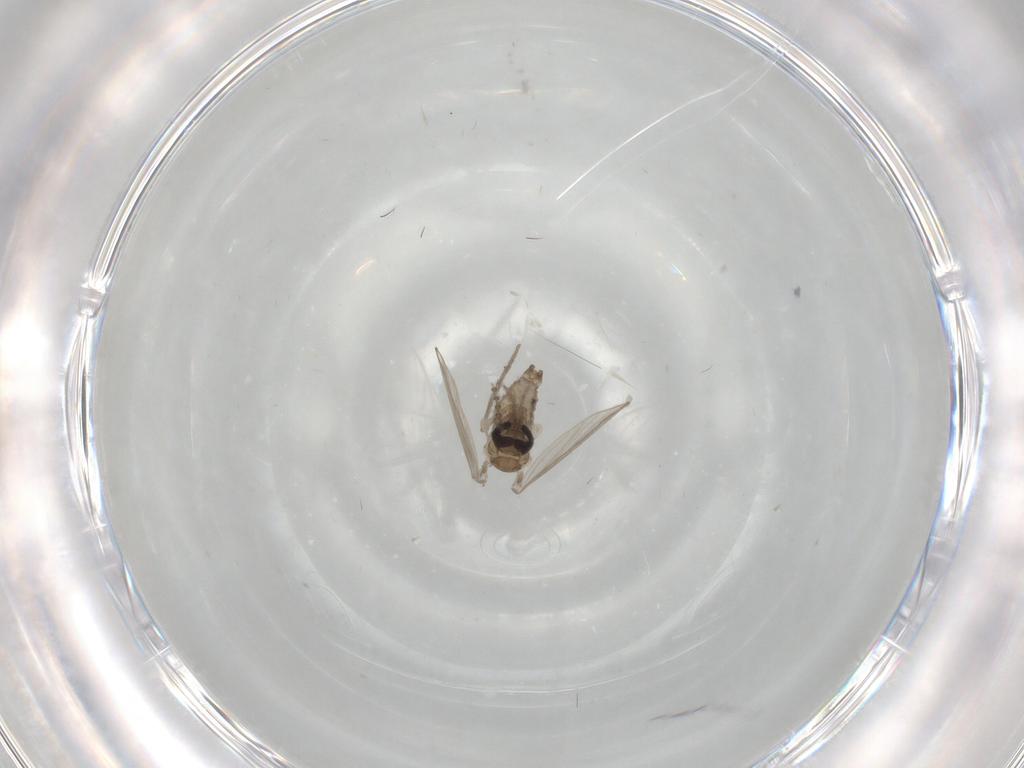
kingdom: Animalia
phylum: Arthropoda
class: Insecta
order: Diptera
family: Psychodidae
